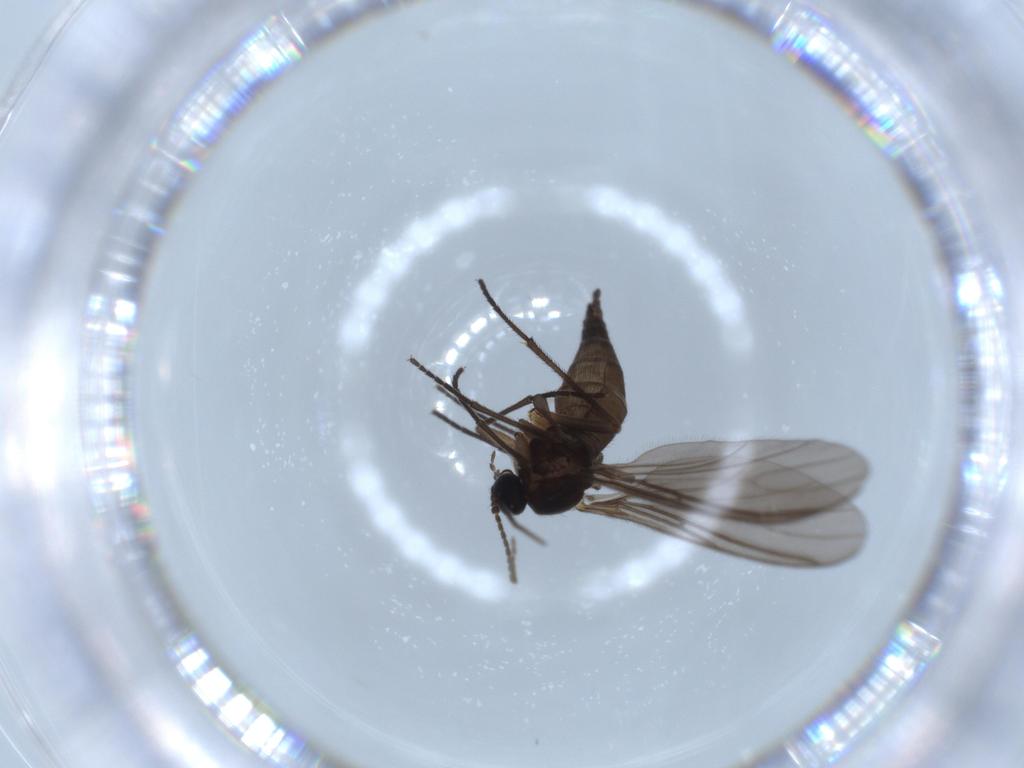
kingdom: Animalia
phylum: Arthropoda
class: Insecta
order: Diptera
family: Sciaridae
